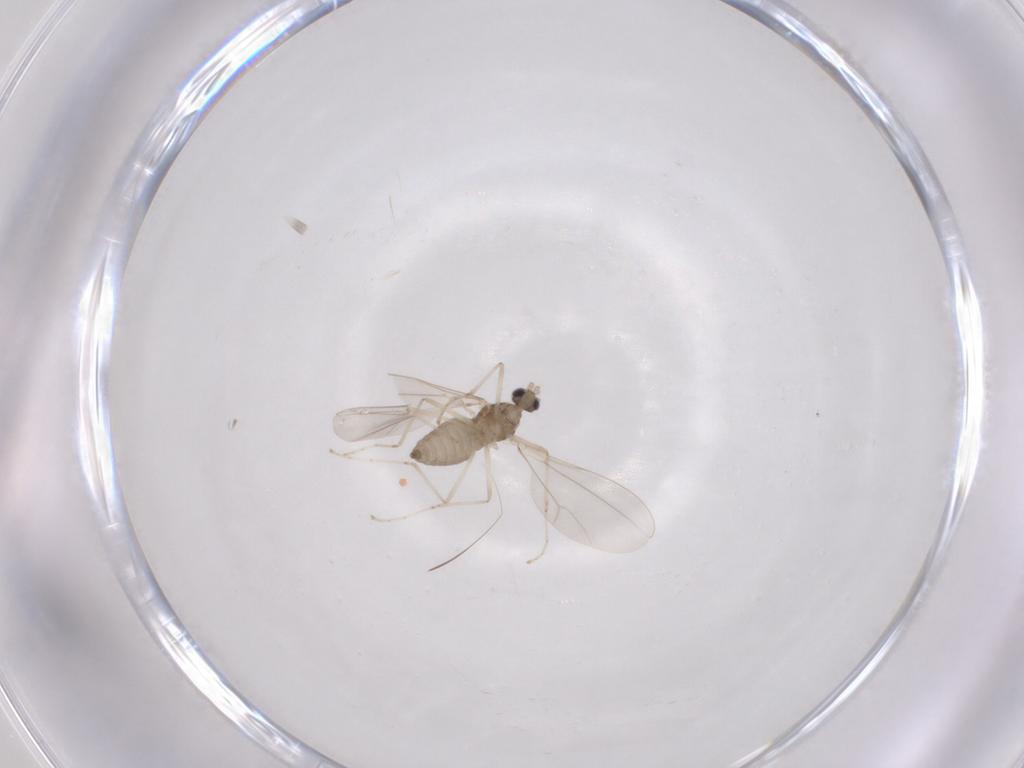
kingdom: Animalia
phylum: Arthropoda
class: Insecta
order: Diptera
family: Cecidomyiidae
